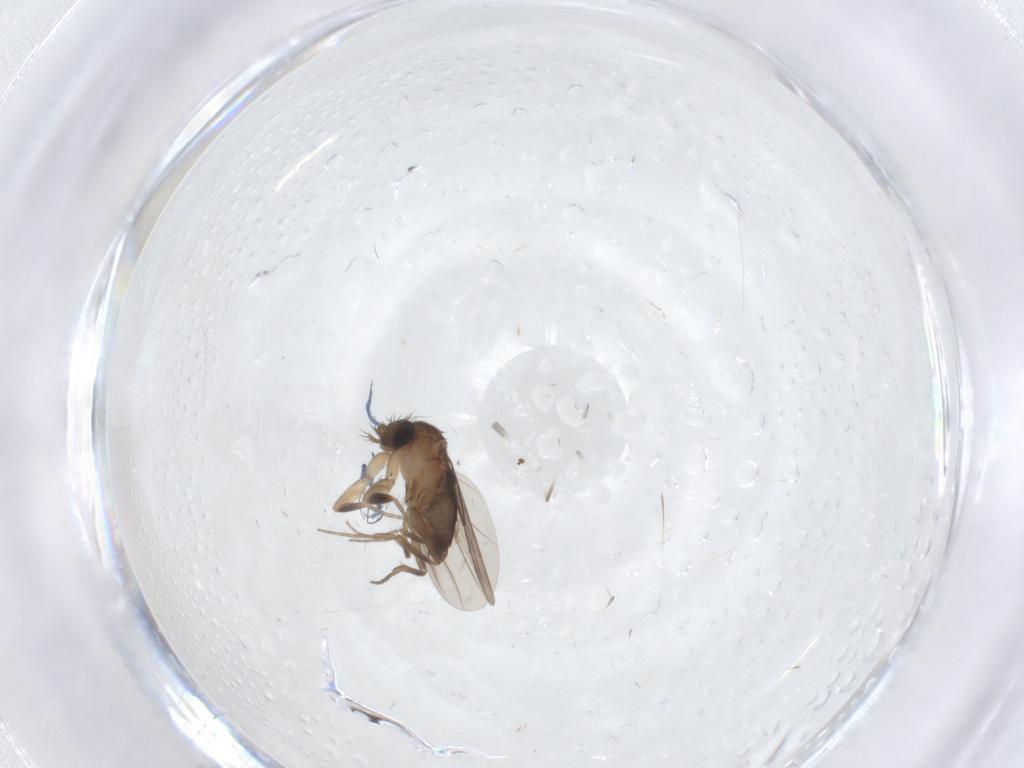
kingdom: Animalia
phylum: Arthropoda
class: Insecta
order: Diptera
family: Phoridae
